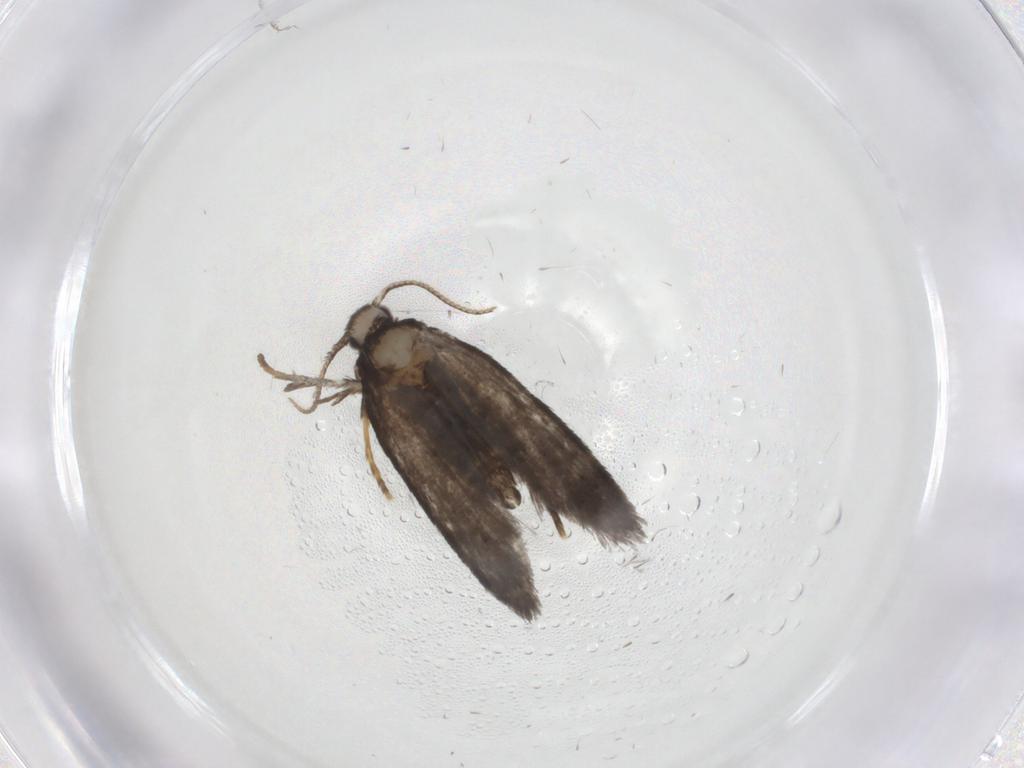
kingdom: Animalia
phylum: Arthropoda
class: Insecta
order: Lepidoptera
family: Psychidae
